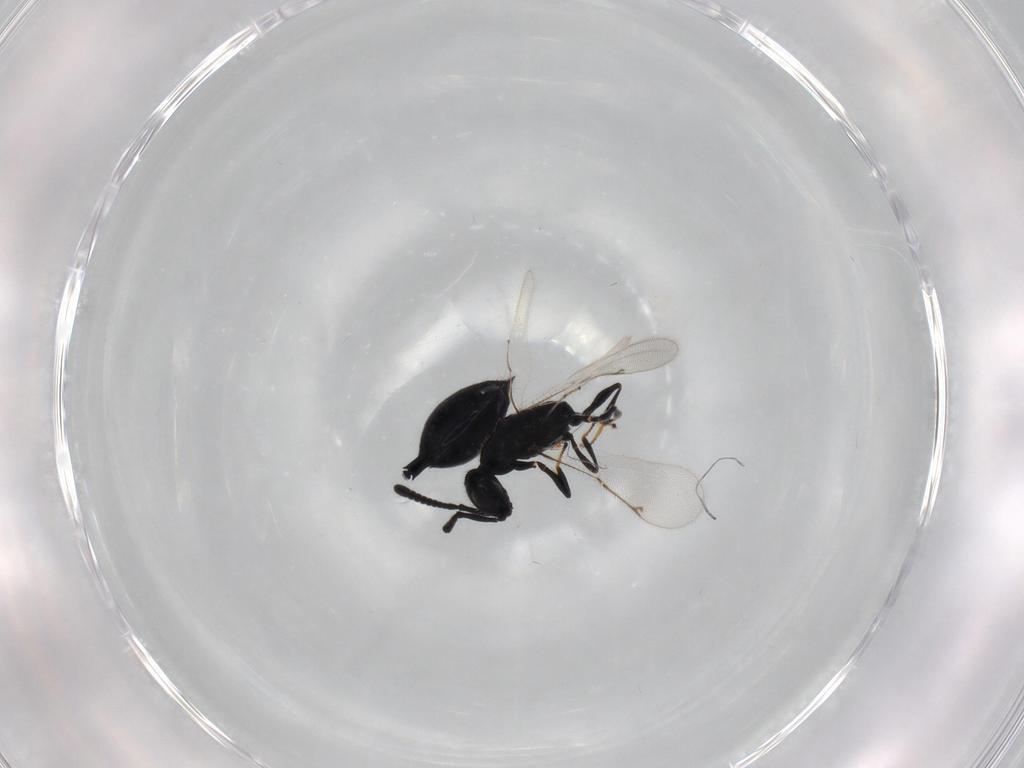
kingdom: Animalia
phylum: Arthropoda
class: Insecta
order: Hymenoptera
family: Pteromalidae
